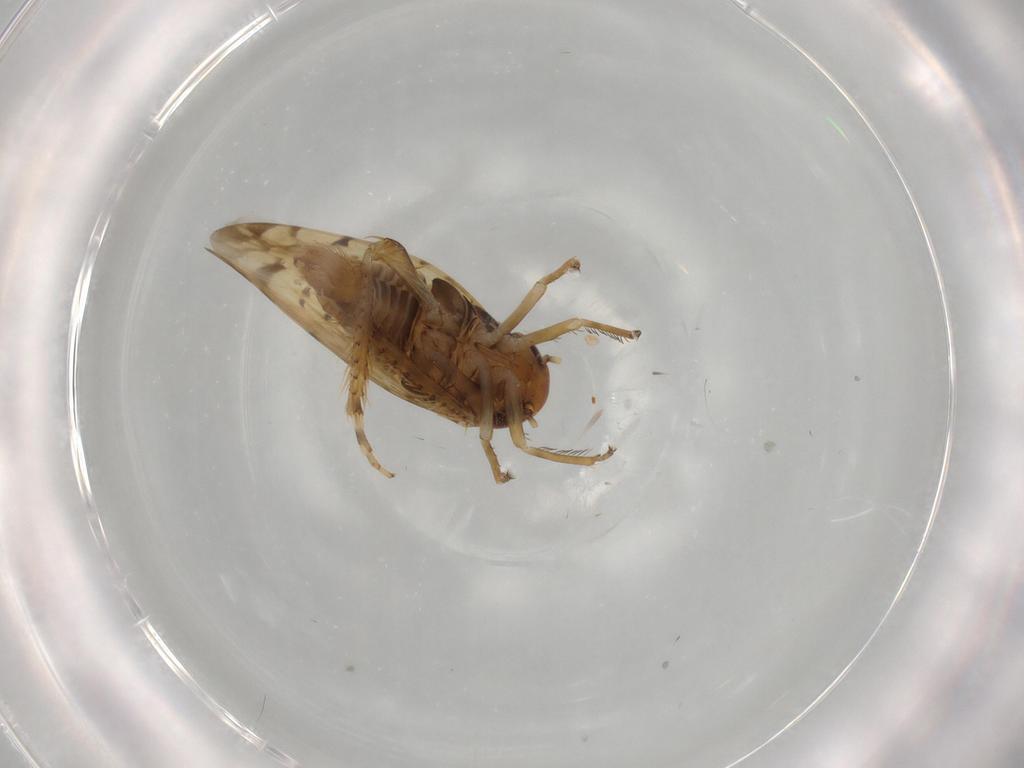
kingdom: Animalia
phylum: Arthropoda
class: Insecta
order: Hemiptera
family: Cicadellidae
